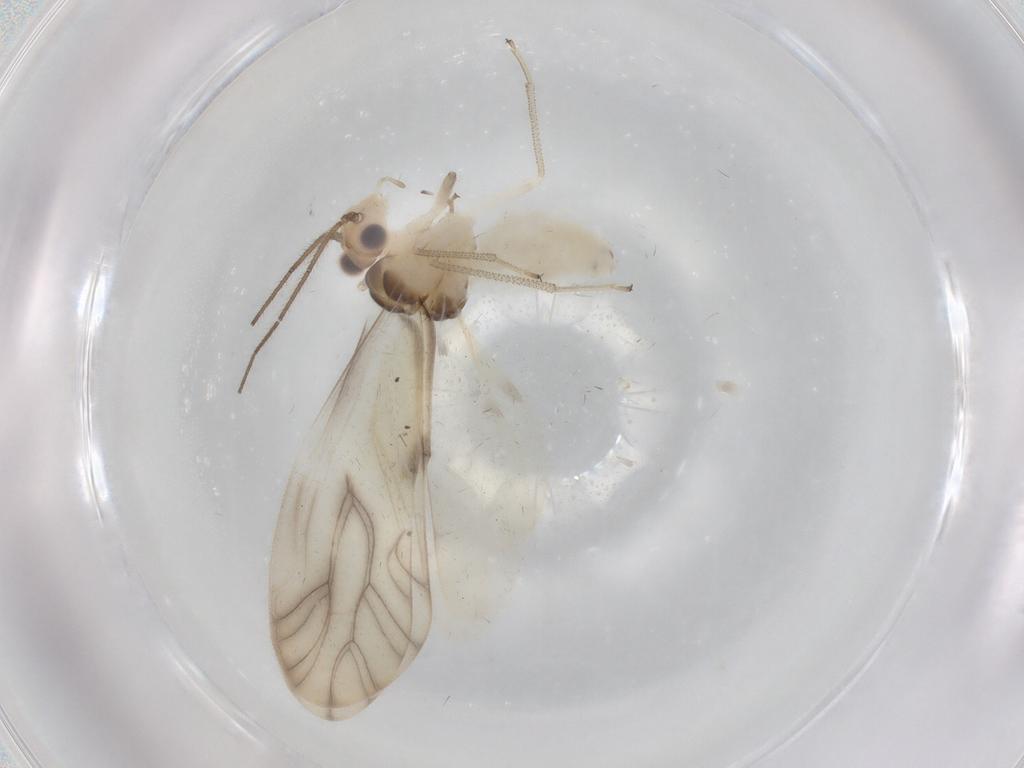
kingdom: Animalia
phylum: Arthropoda
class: Insecta
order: Psocodea
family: Caeciliusidae
